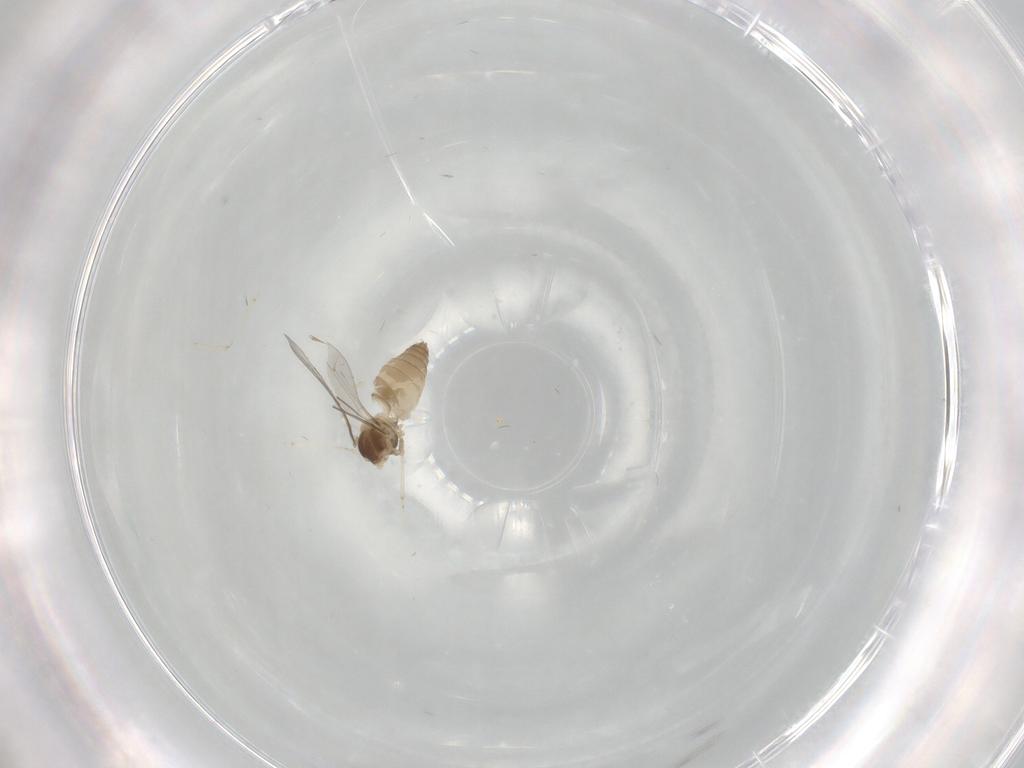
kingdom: Animalia
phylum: Arthropoda
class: Insecta
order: Diptera
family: Cecidomyiidae
